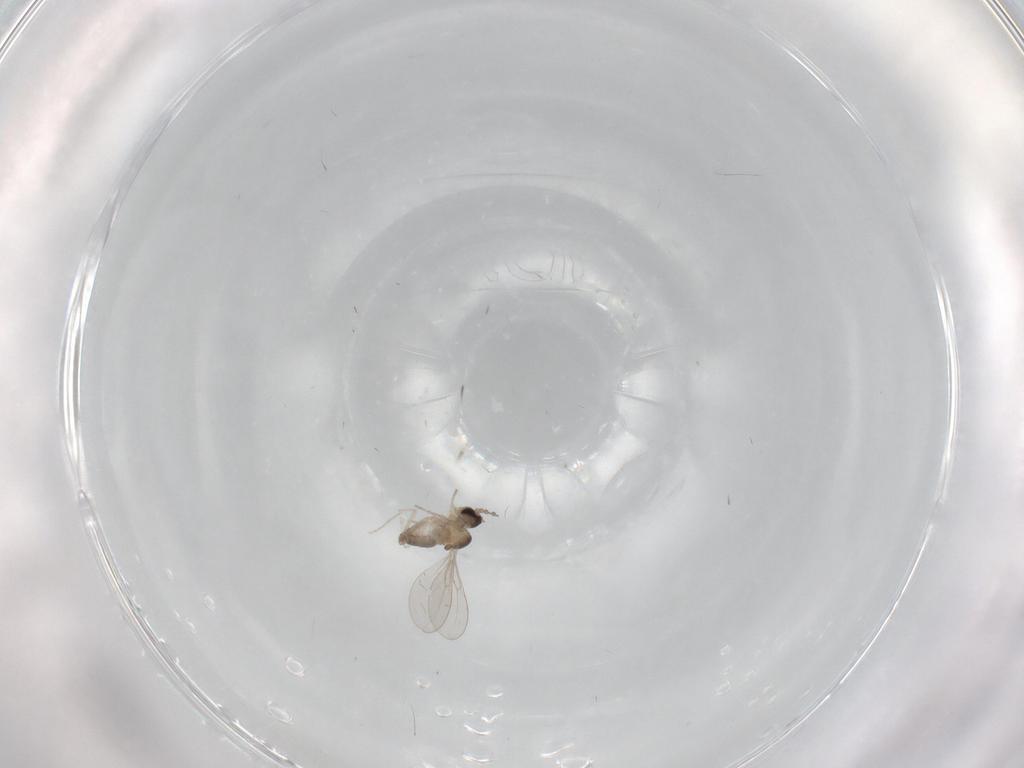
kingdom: Animalia
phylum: Arthropoda
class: Insecta
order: Diptera
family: Cecidomyiidae
